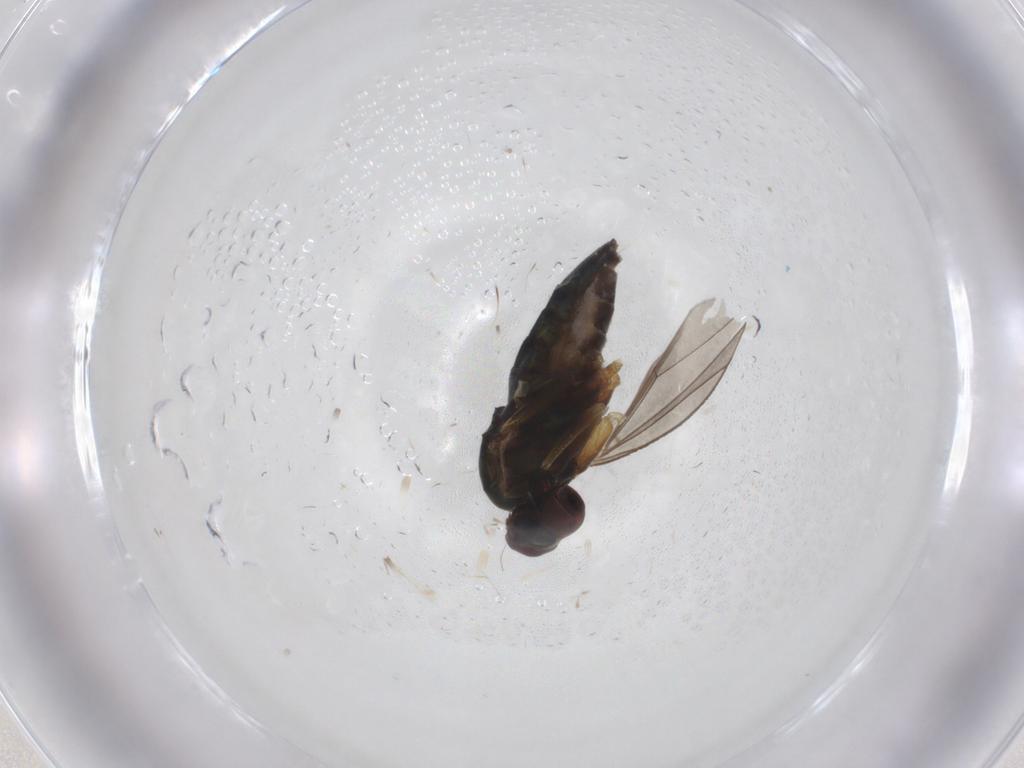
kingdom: Animalia
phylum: Arthropoda
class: Insecta
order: Diptera
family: Dolichopodidae
